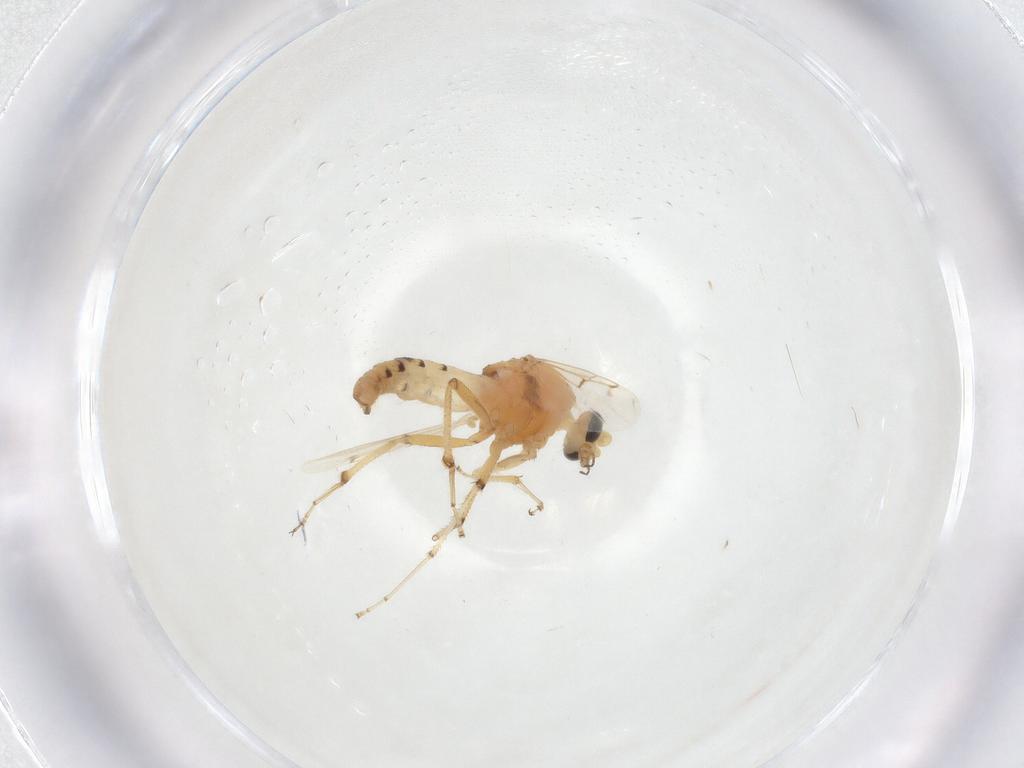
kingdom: Animalia
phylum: Arthropoda
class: Insecta
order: Diptera
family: Ceratopogonidae
